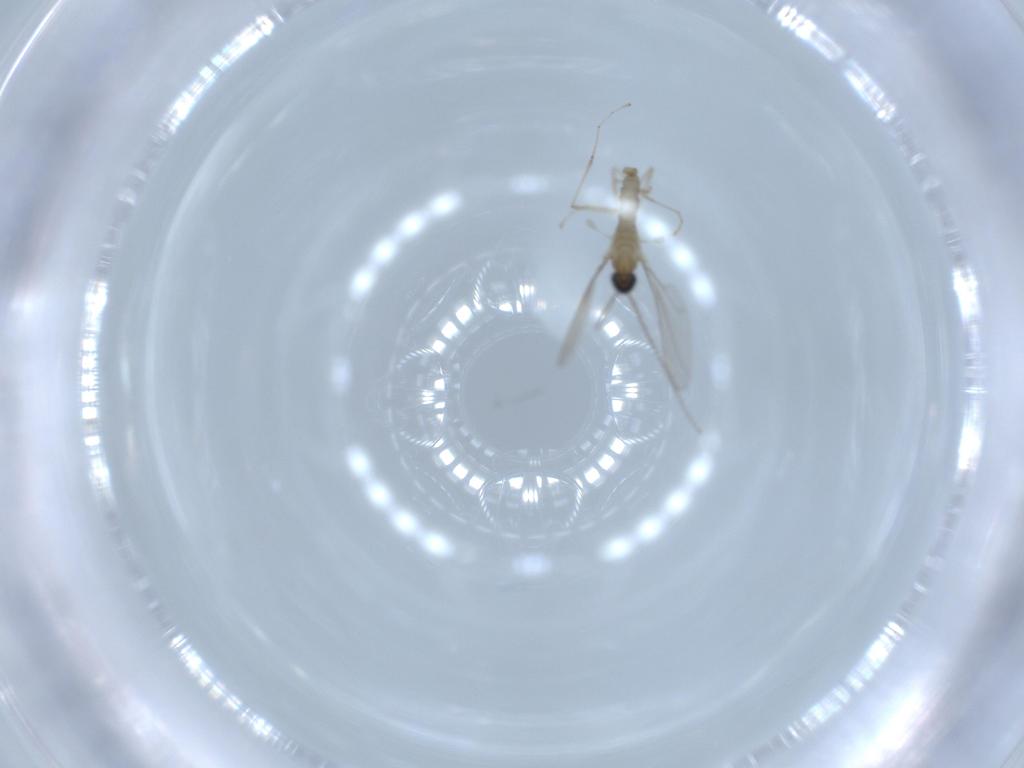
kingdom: Animalia
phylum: Arthropoda
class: Insecta
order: Diptera
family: Cecidomyiidae
